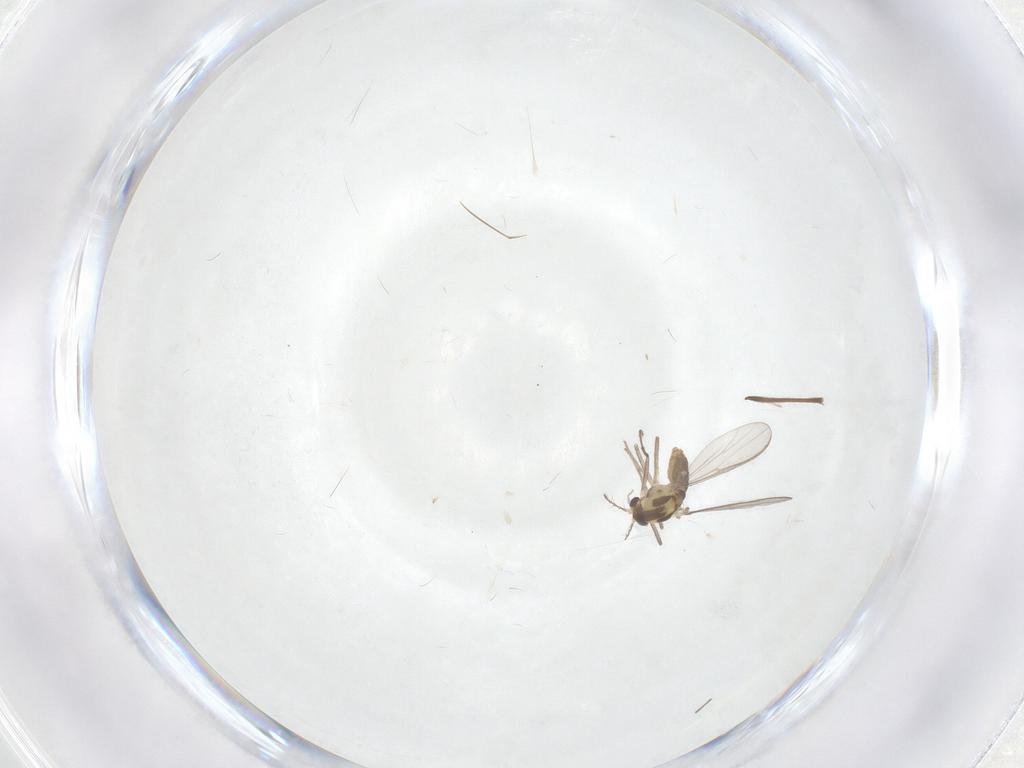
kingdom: Animalia
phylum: Arthropoda
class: Insecta
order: Diptera
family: Chironomidae
